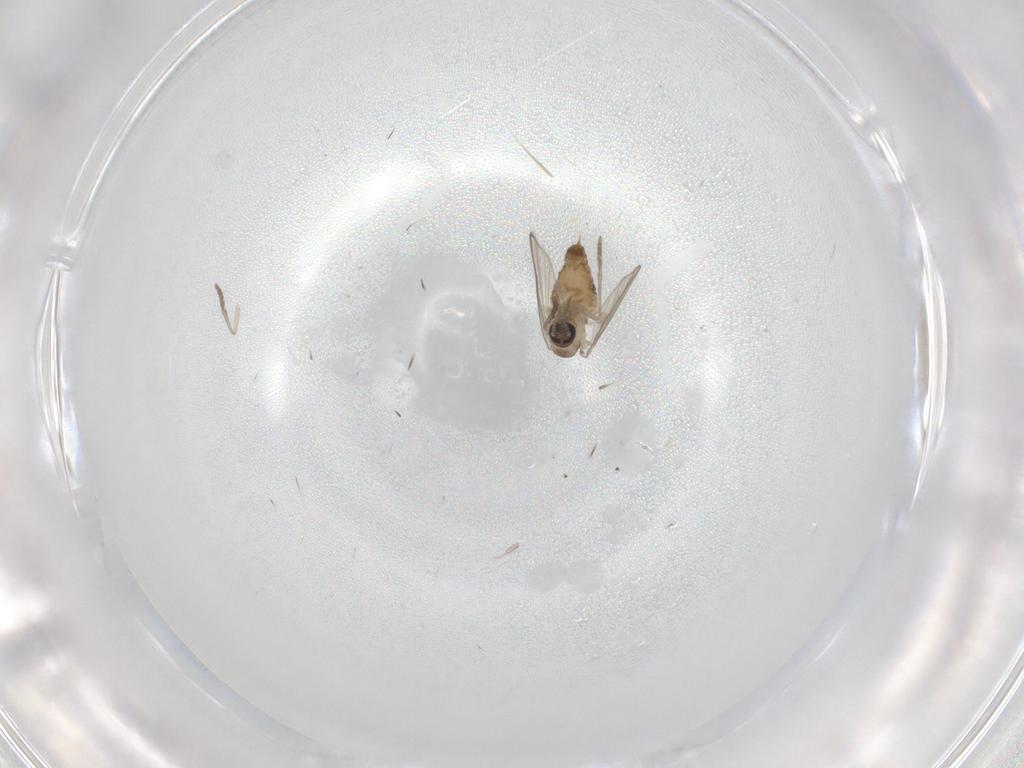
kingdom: Animalia
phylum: Arthropoda
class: Insecta
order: Diptera
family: Psychodidae
